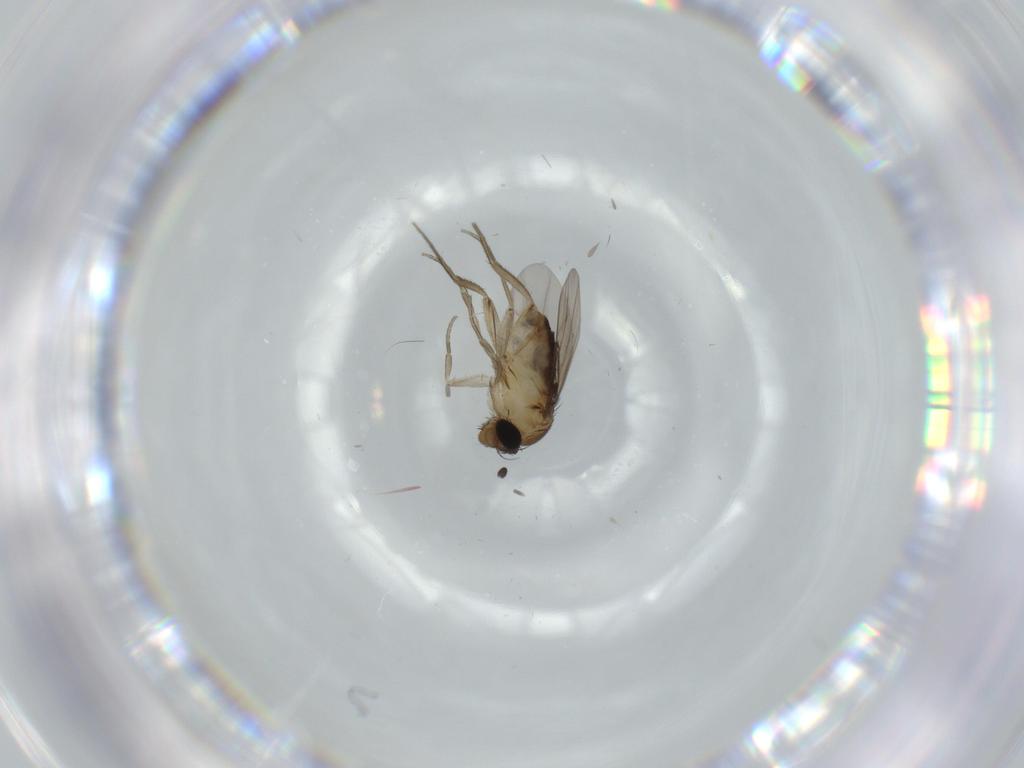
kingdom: Animalia
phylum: Arthropoda
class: Insecta
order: Diptera
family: Phoridae
